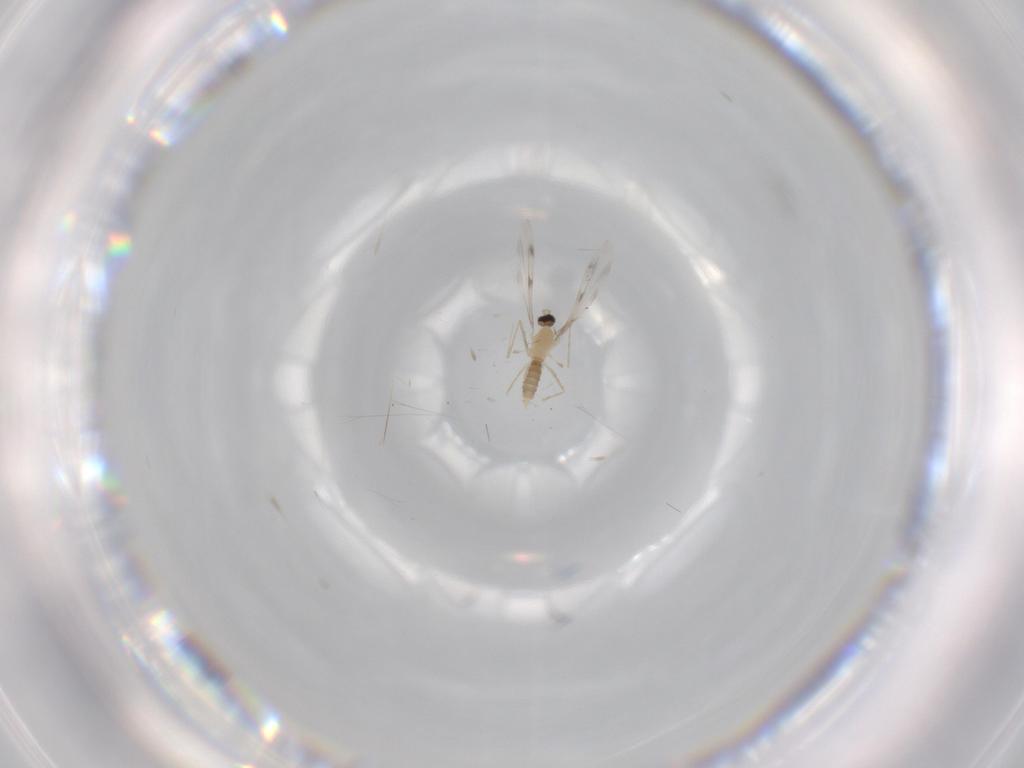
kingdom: Animalia
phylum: Arthropoda
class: Insecta
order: Diptera
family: Cecidomyiidae
